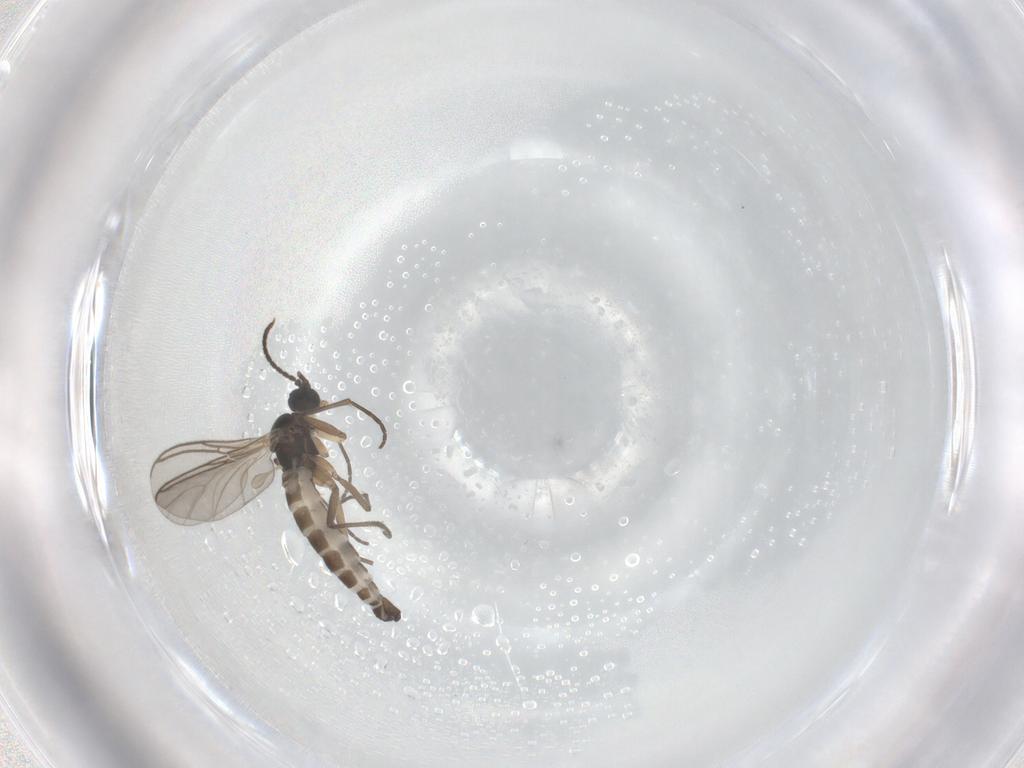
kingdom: Animalia
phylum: Arthropoda
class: Insecta
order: Diptera
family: Sciaridae
